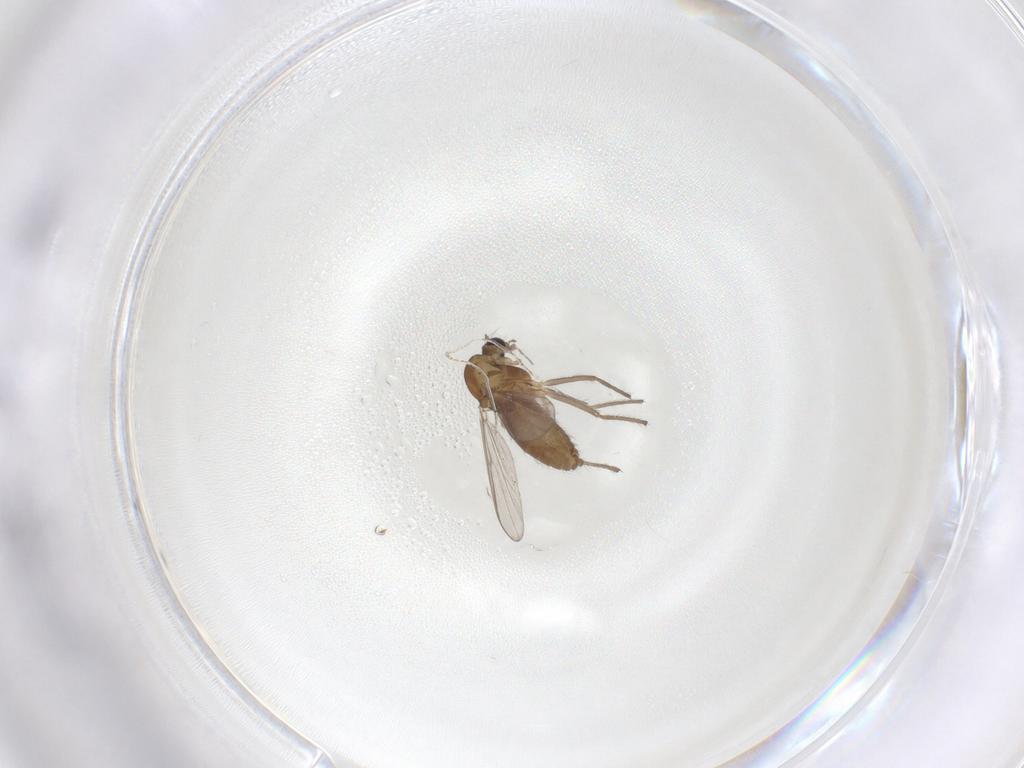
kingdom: Animalia
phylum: Arthropoda
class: Insecta
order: Diptera
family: Chironomidae
